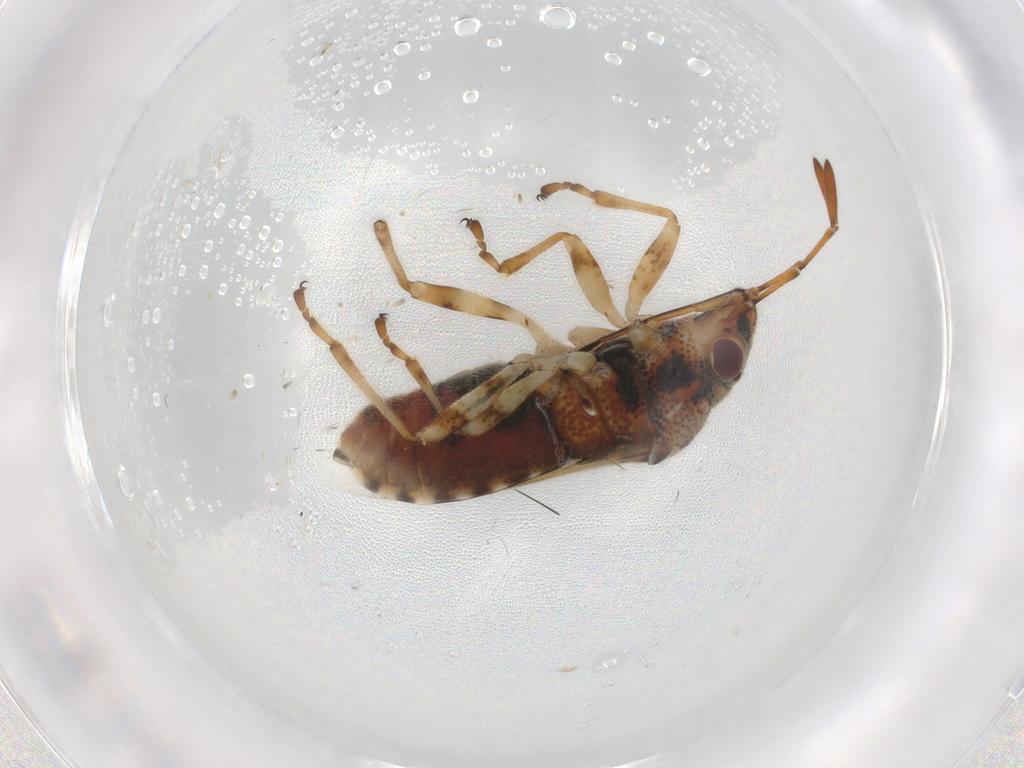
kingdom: Animalia
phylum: Arthropoda
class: Insecta
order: Hemiptera
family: Lygaeidae
